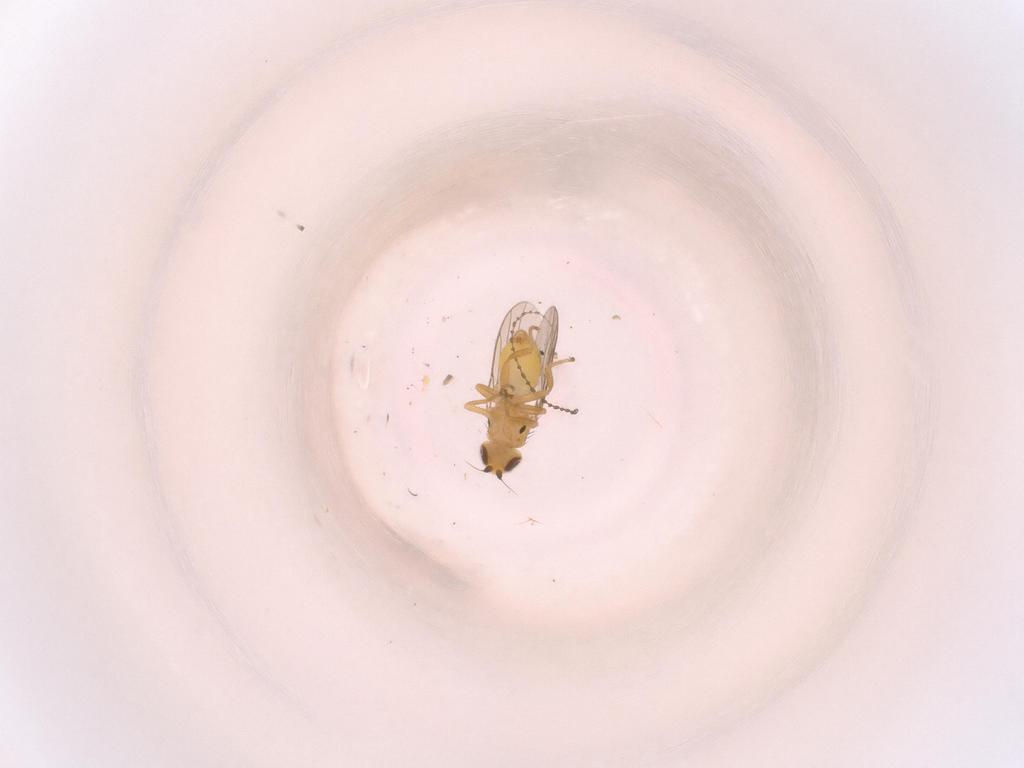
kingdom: Animalia
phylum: Arthropoda
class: Insecta
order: Diptera
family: Chloropidae
